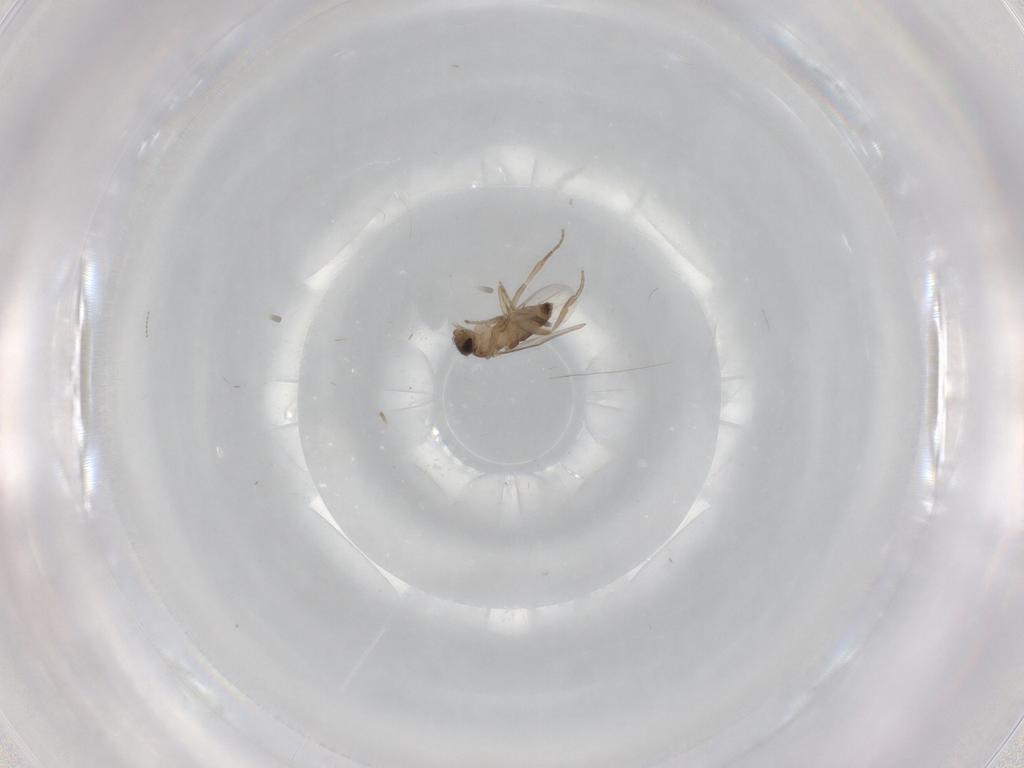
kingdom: Animalia
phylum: Arthropoda
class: Insecta
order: Diptera
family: Phoridae
